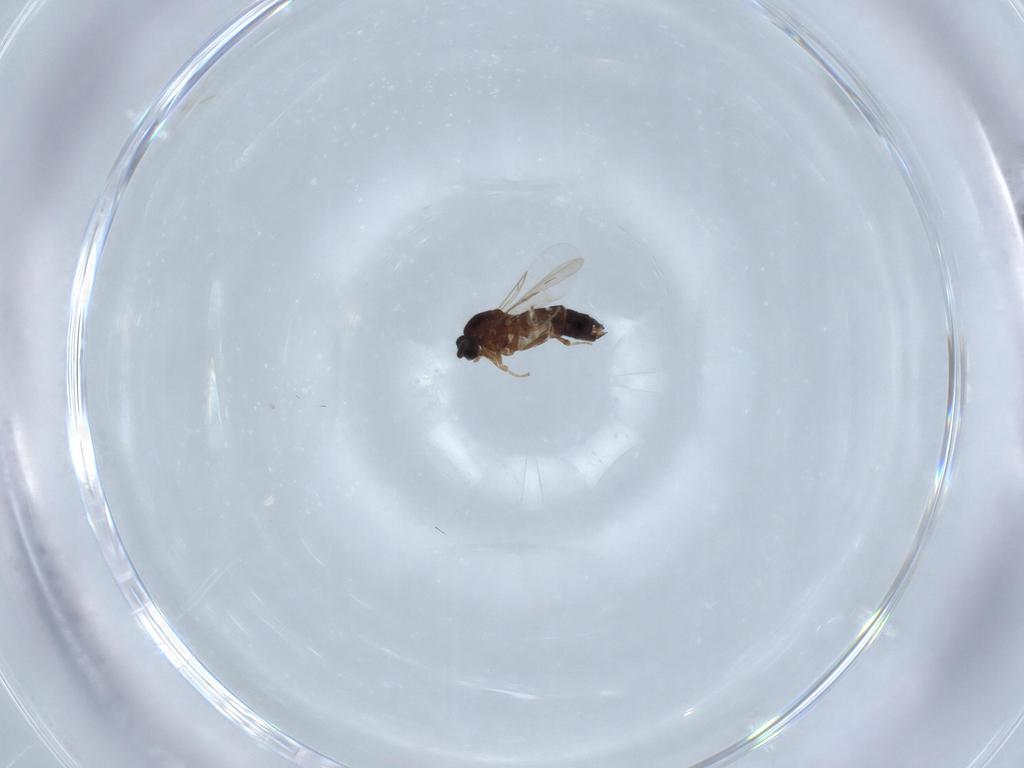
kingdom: Animalia
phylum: Arthropoda
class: Insecta
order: Diptera
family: Scatopsidae
